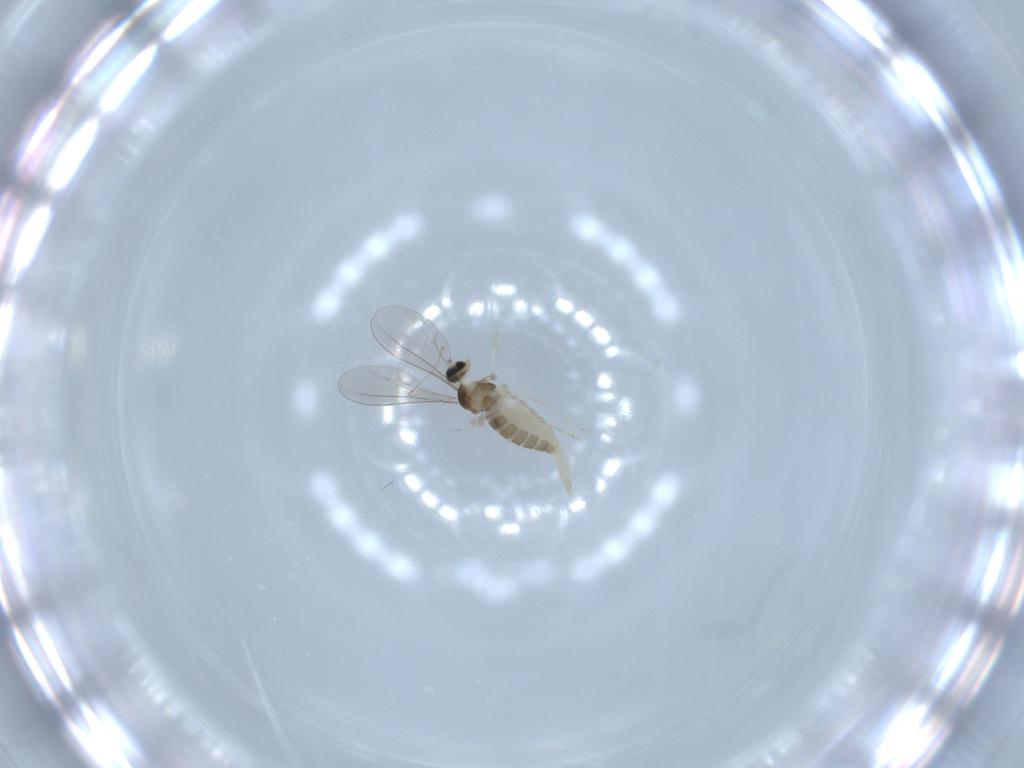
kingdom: Animalia
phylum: Arthropoda
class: Insecta
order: Diptera
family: Cecidomyiidae
